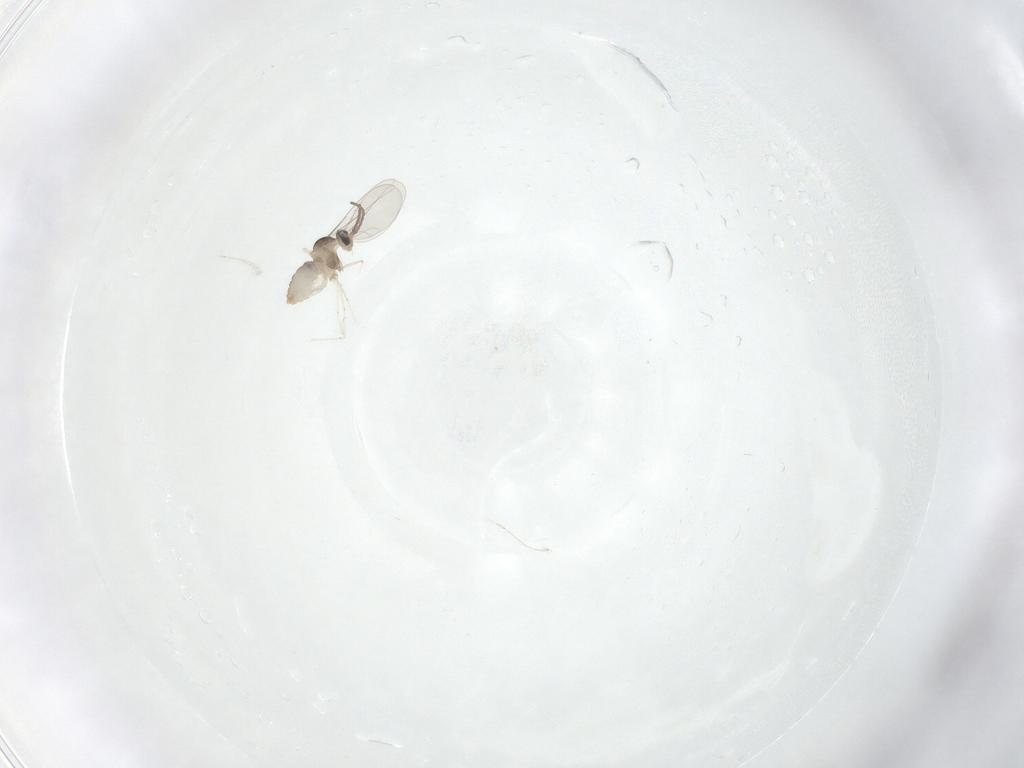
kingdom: Animalia
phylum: Arthropoda
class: Insecta
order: Diptera
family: Cecidomyiidae
